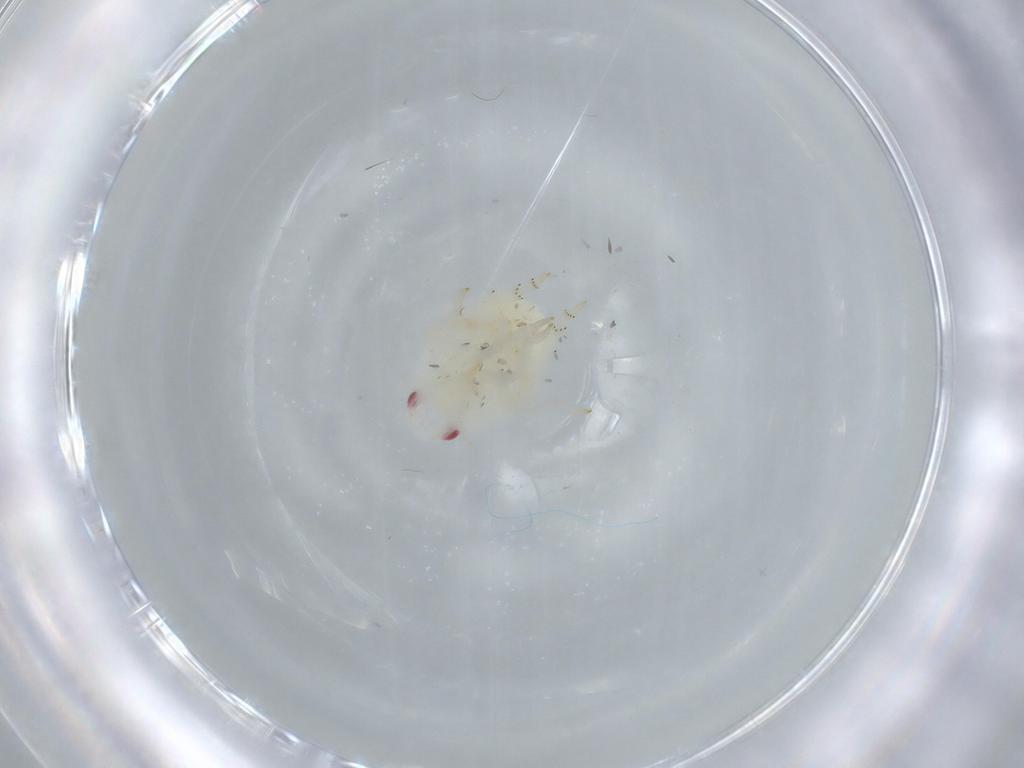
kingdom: Animalia
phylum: Arthropoda
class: Insecta
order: Hemiptera
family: Flatidae
